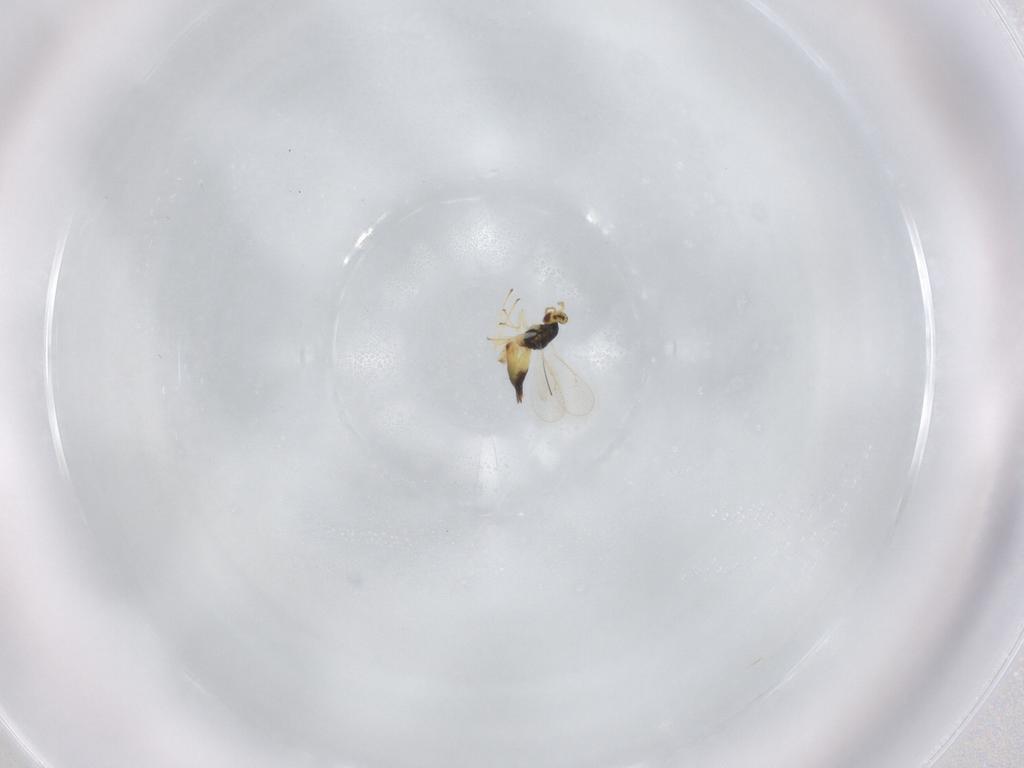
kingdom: Animalia
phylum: Arthropoda
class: Insecta
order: Hymenoptera
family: Eulophidae
